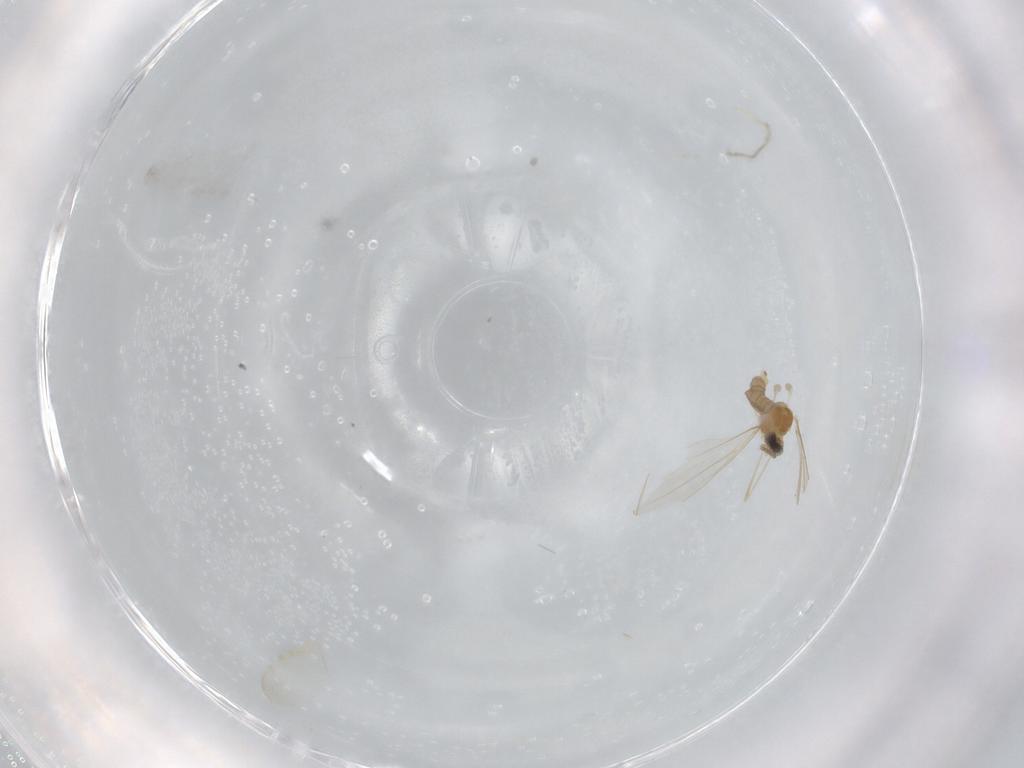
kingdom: Animalia
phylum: Arthropoda
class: Insecta
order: Diptera
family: Cecidomyiidae
